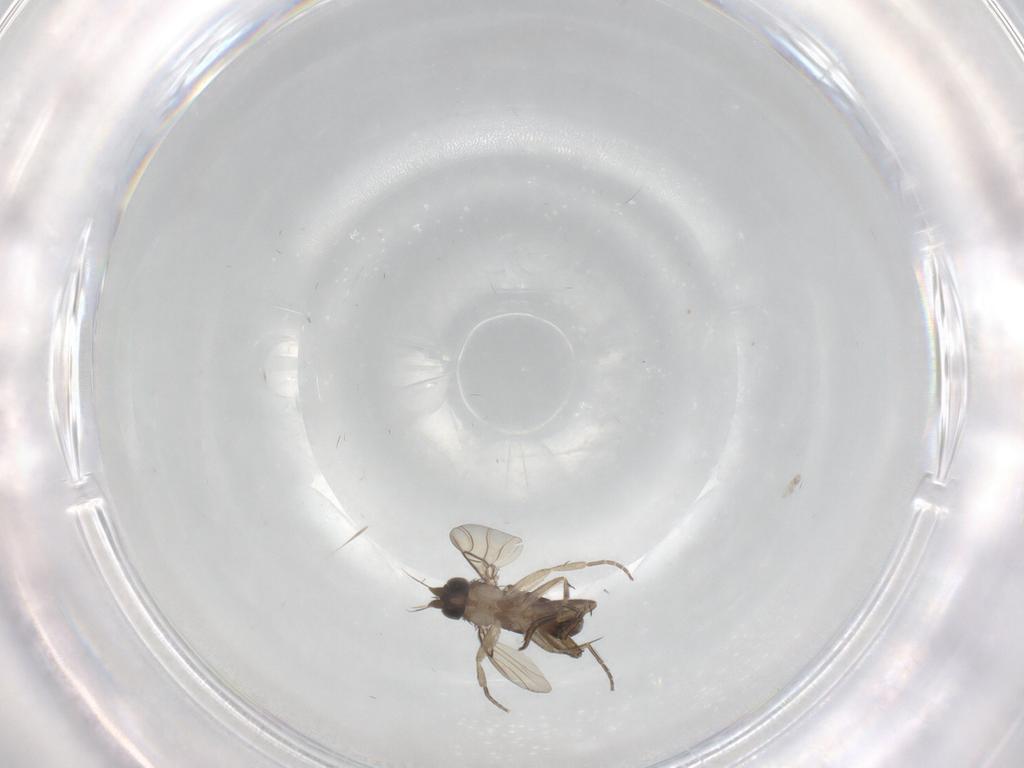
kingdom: Animalia
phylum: Arthropoda
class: Insecta
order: Diptera
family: Phoridae
